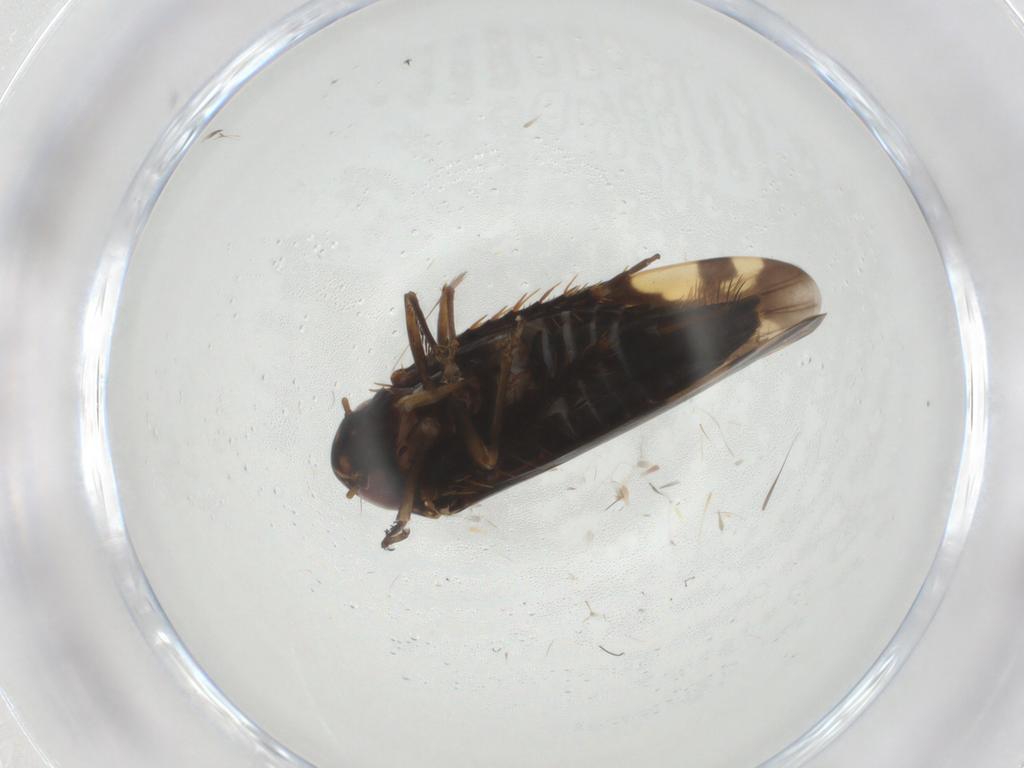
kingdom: Animalia
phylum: Arthropoda
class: Insecta
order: Hemiptera
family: Cicadellidae
